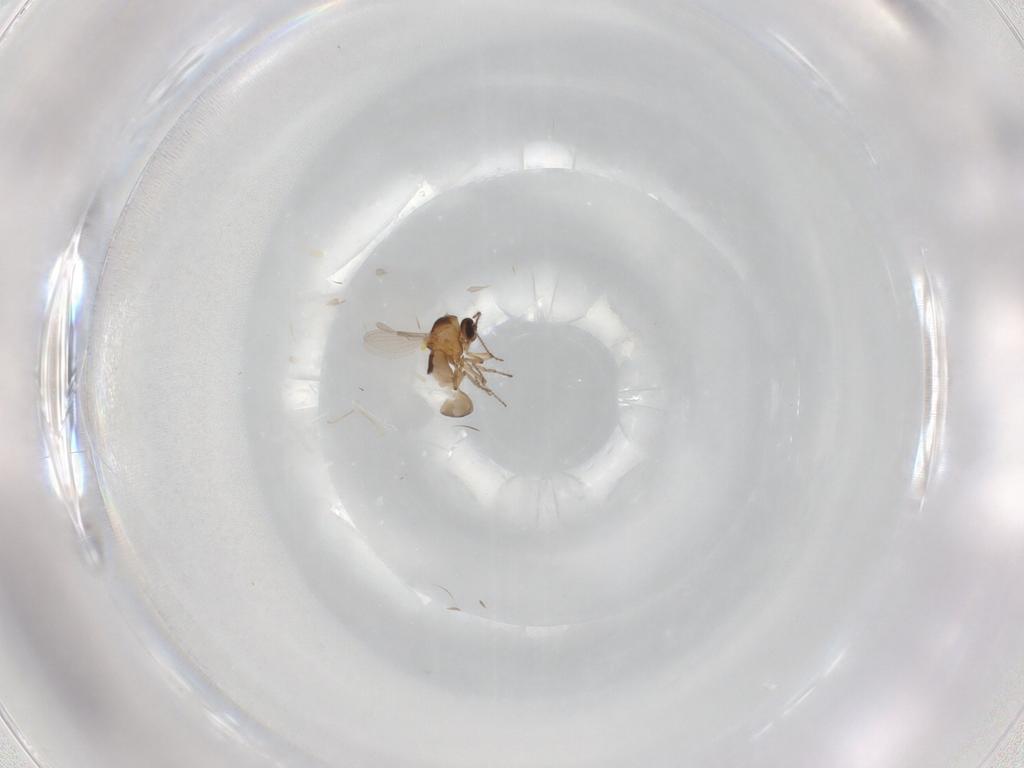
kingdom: Animalia
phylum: Arthropoda
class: Insecta
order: Diptera
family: Ceratopogonidae
